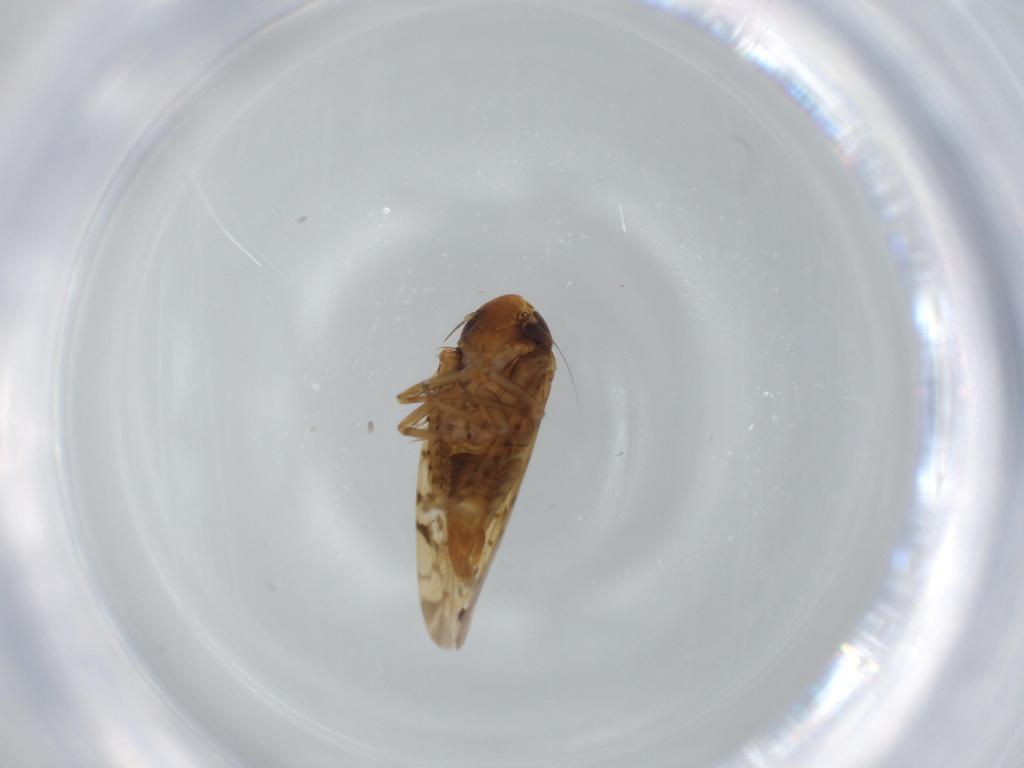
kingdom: Animalia
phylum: Arthropoda
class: Insecta
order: Hemiptera
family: Cicadellidae
